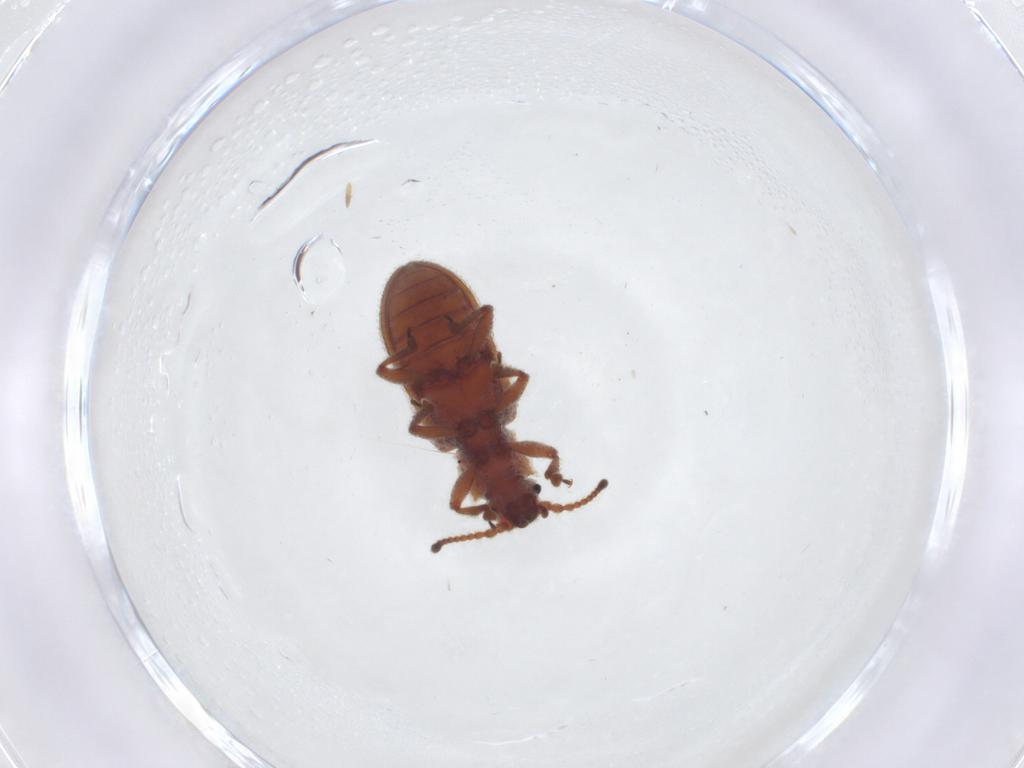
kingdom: Animalia
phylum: Arthropoda
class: Insecta
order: Coleoptera
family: Zopheridae
